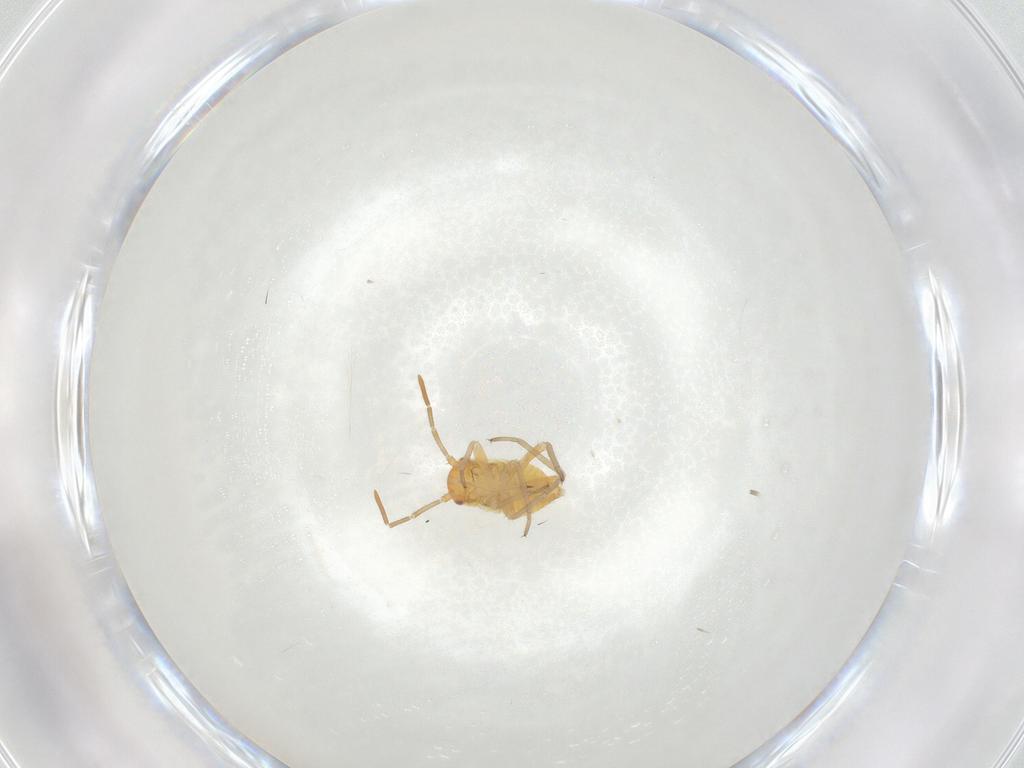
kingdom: Animalia
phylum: Arthropoda
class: Insecta
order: Hemiptera
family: Miridae
